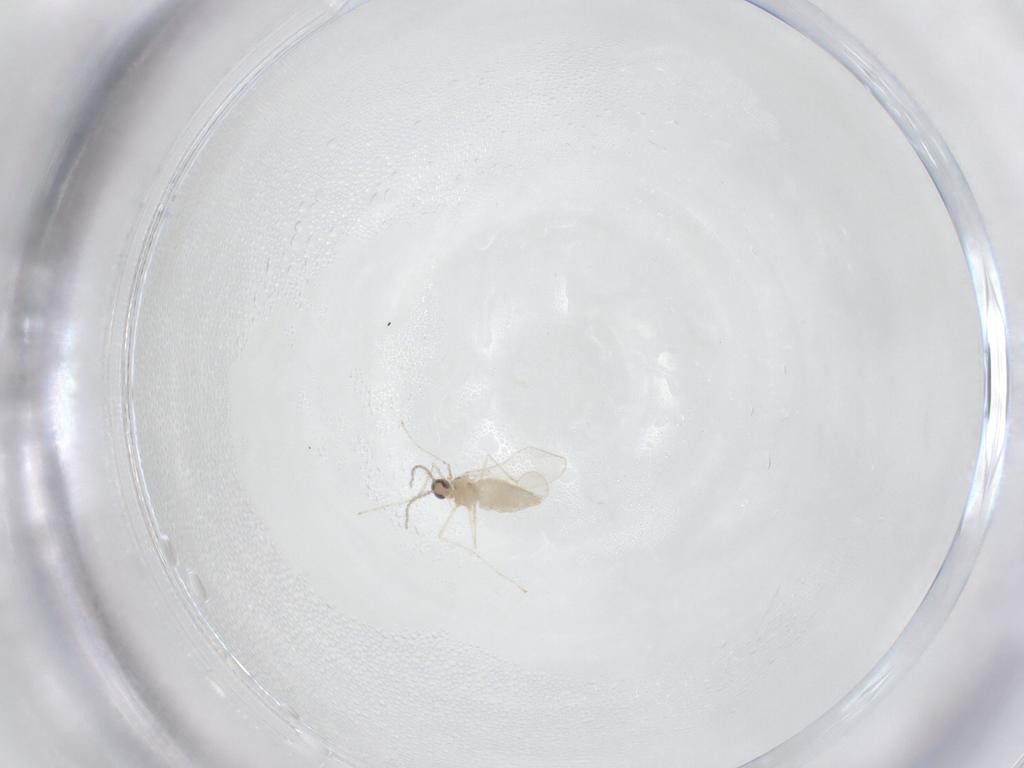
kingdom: Animalia
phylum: Arthropoda
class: Insecta
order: Diptera
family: Cecidomyiidae
